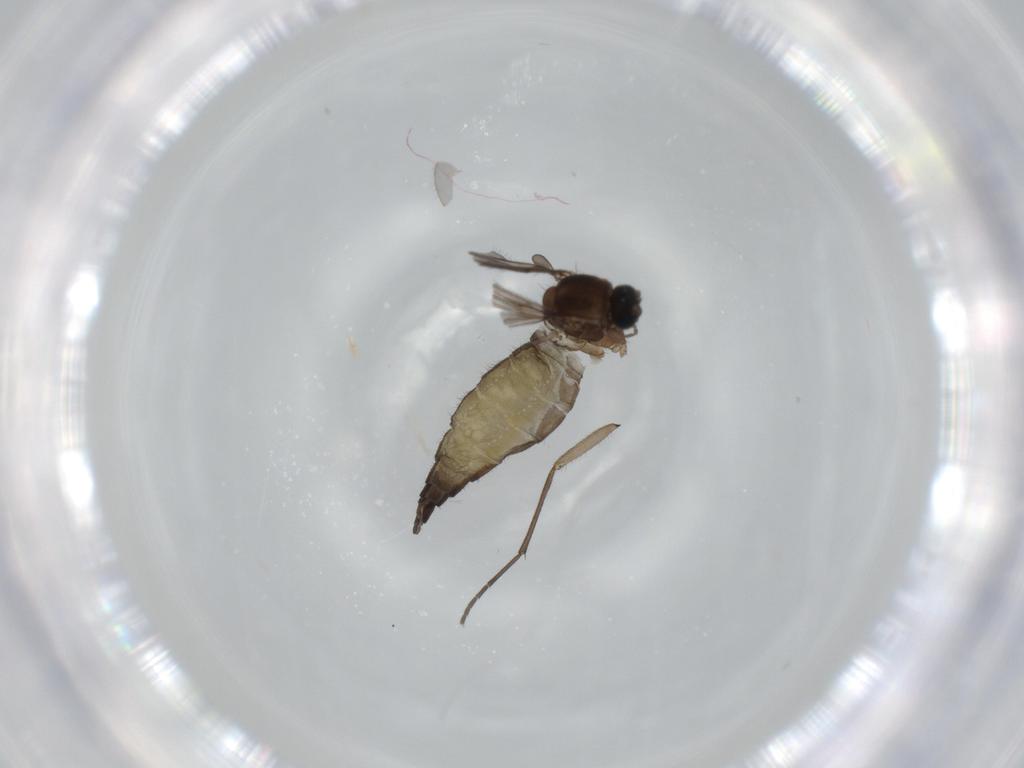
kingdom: Animalia
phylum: Arthropoda
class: Insecta
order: Diptera
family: Sciaridae
